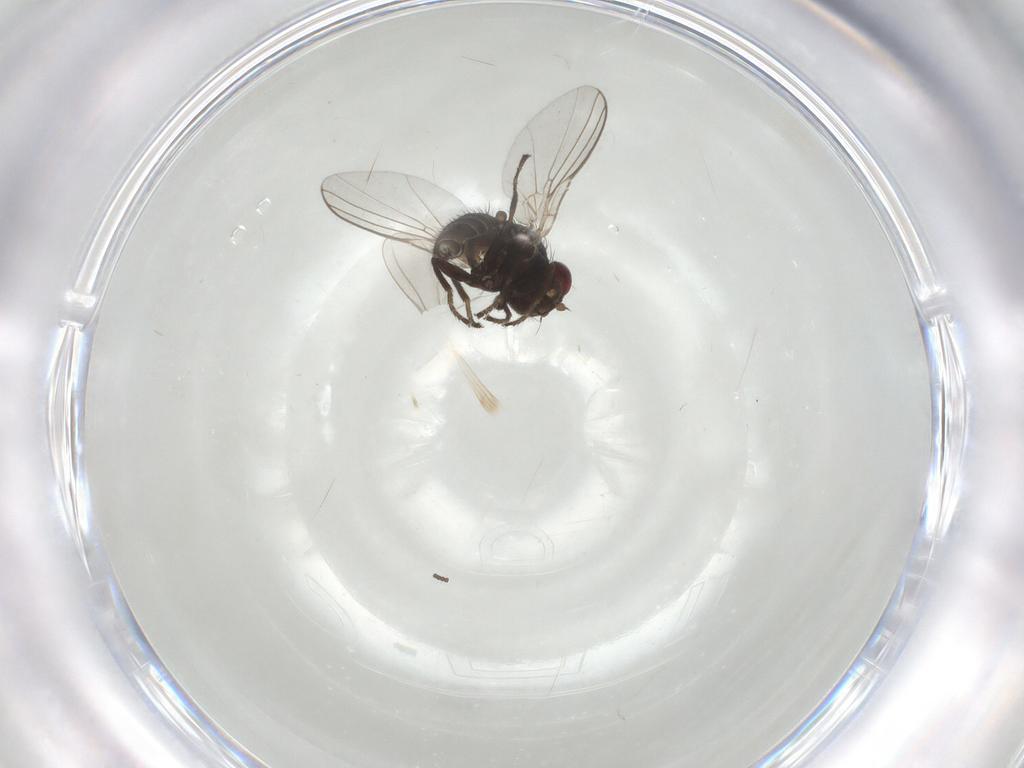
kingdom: Animalia
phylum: Arthropoda
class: Insecta
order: Diptera
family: Agromyzidae
